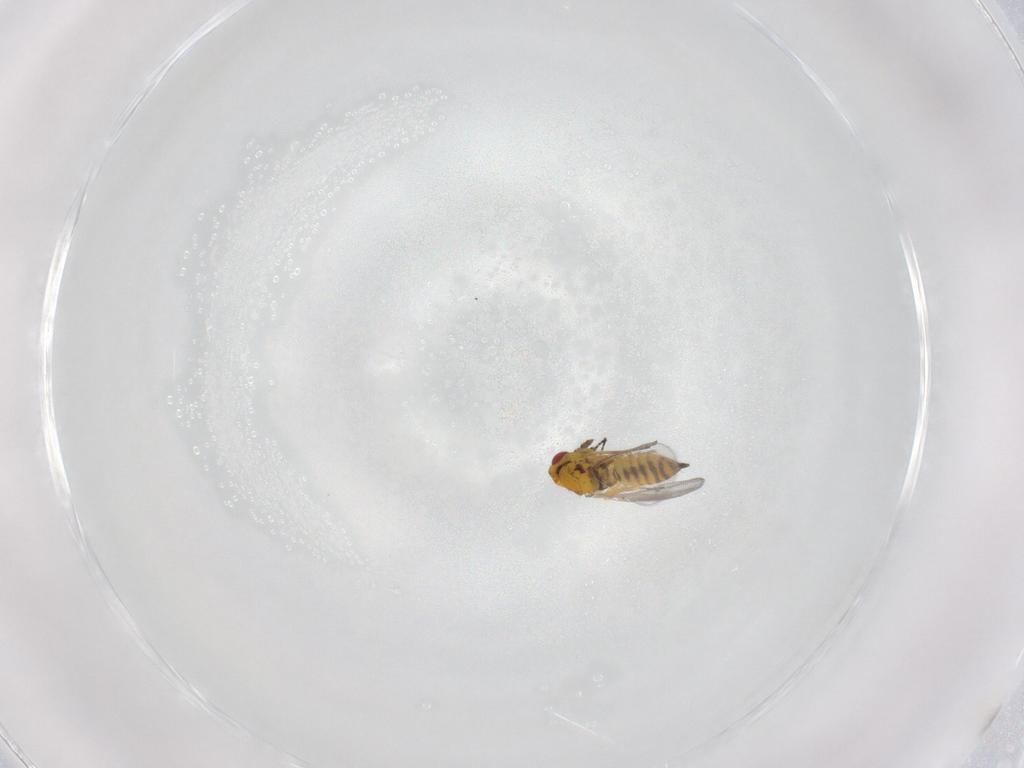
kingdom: Animalia
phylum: Arthropoda
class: Insecta
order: Hymenoptera
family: Eulophidae
